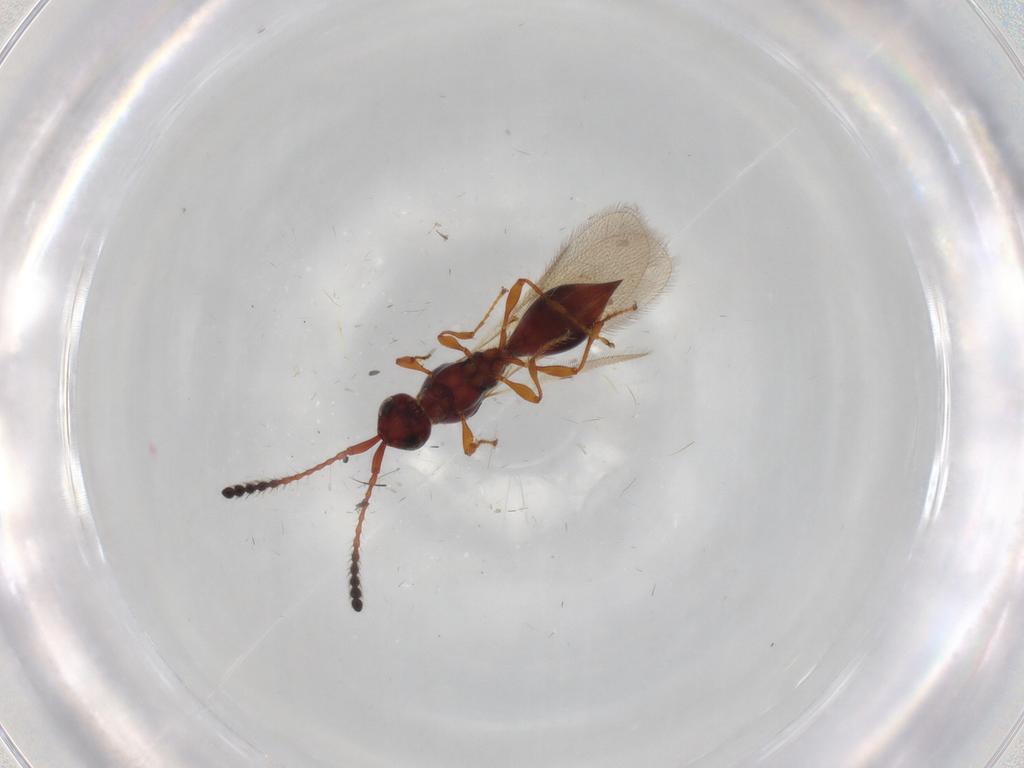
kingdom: Animalia
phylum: Arthropoda
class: Insecta
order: Hymenoptera
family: Diapriidae
